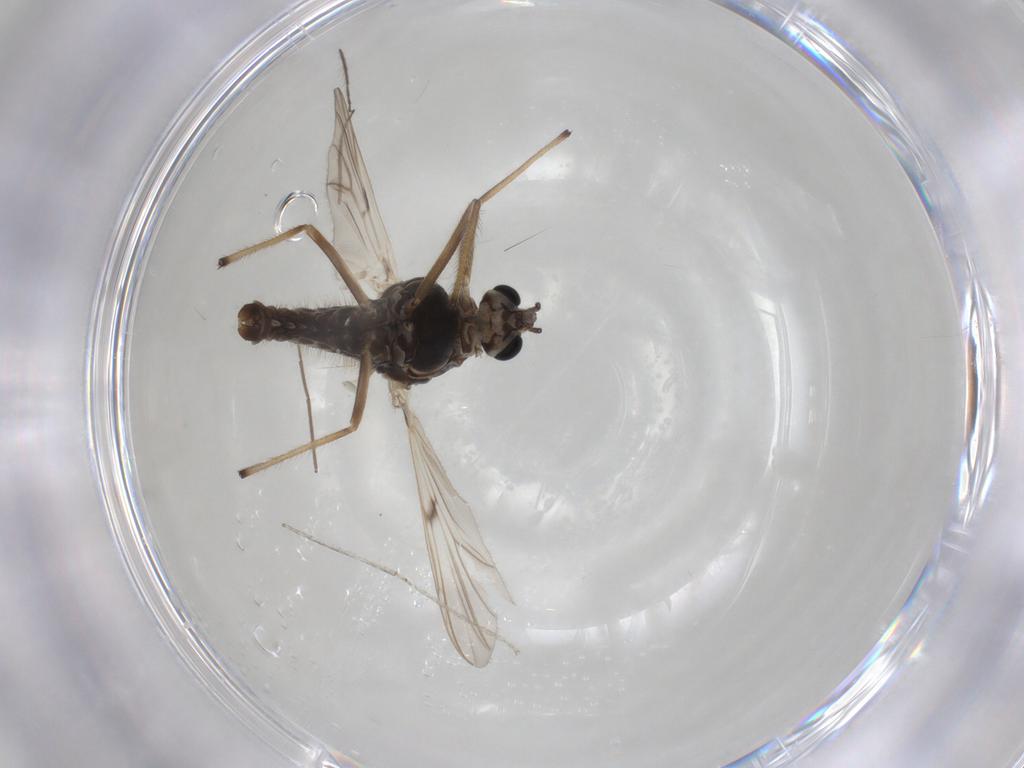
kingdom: Animalia
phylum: Arthropoda
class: Insecta
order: Diptera
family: Chironomidae
